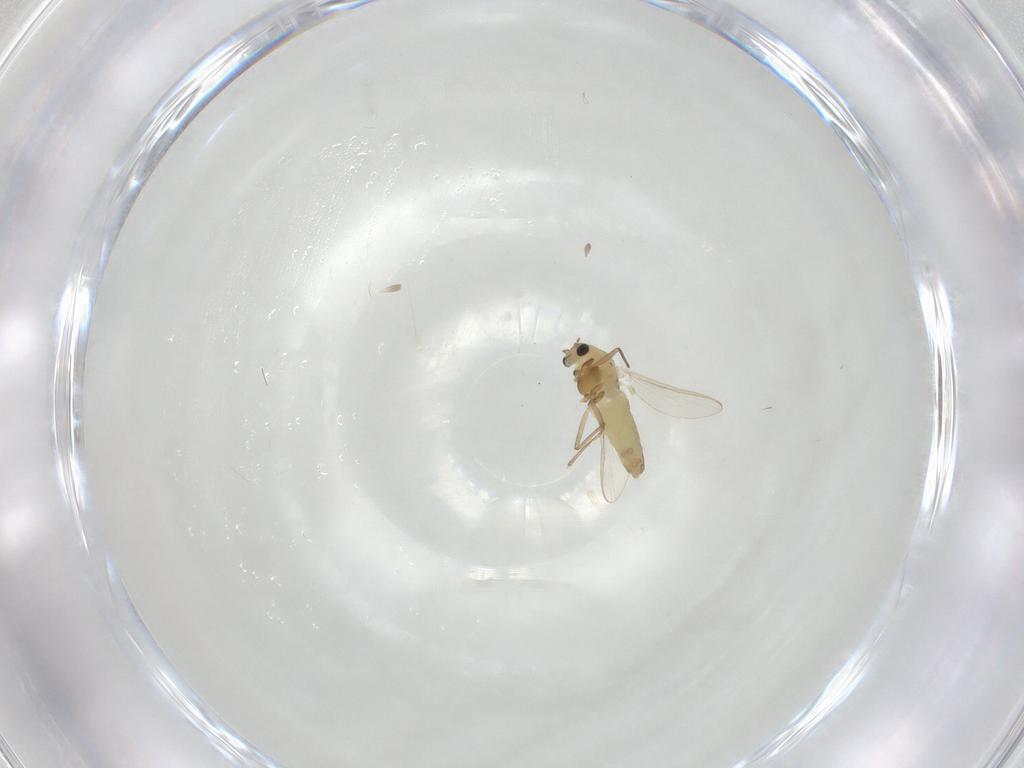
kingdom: Animalia
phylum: Arthropoda
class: Insecta
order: Diptera
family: Chironomidae
